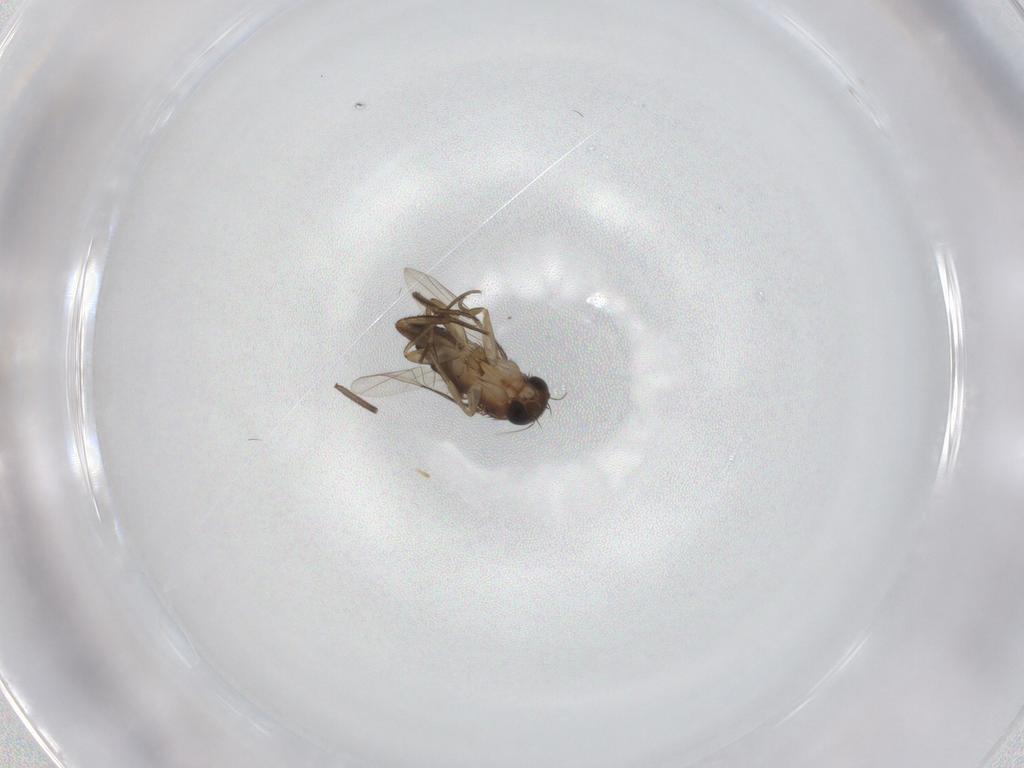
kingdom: Animalia
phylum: Arthropoda
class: Insecta
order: Diptera
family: Phoridae
